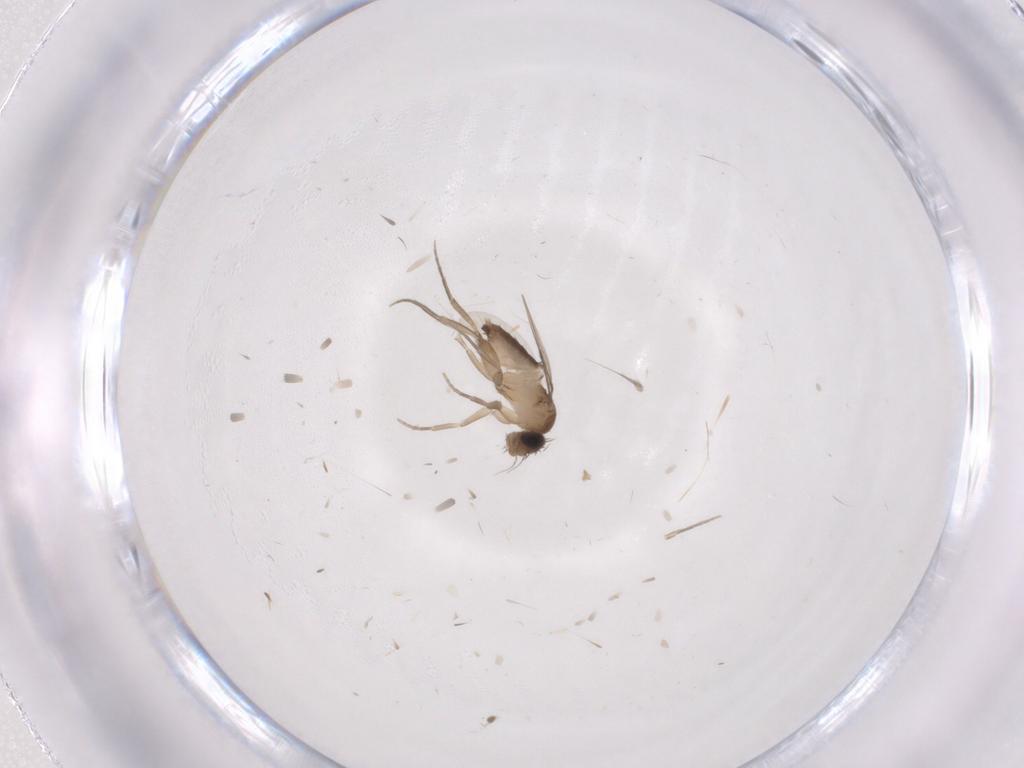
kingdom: Animalia
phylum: Arthropoda
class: Insecta
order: Diptera
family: Phoridae
